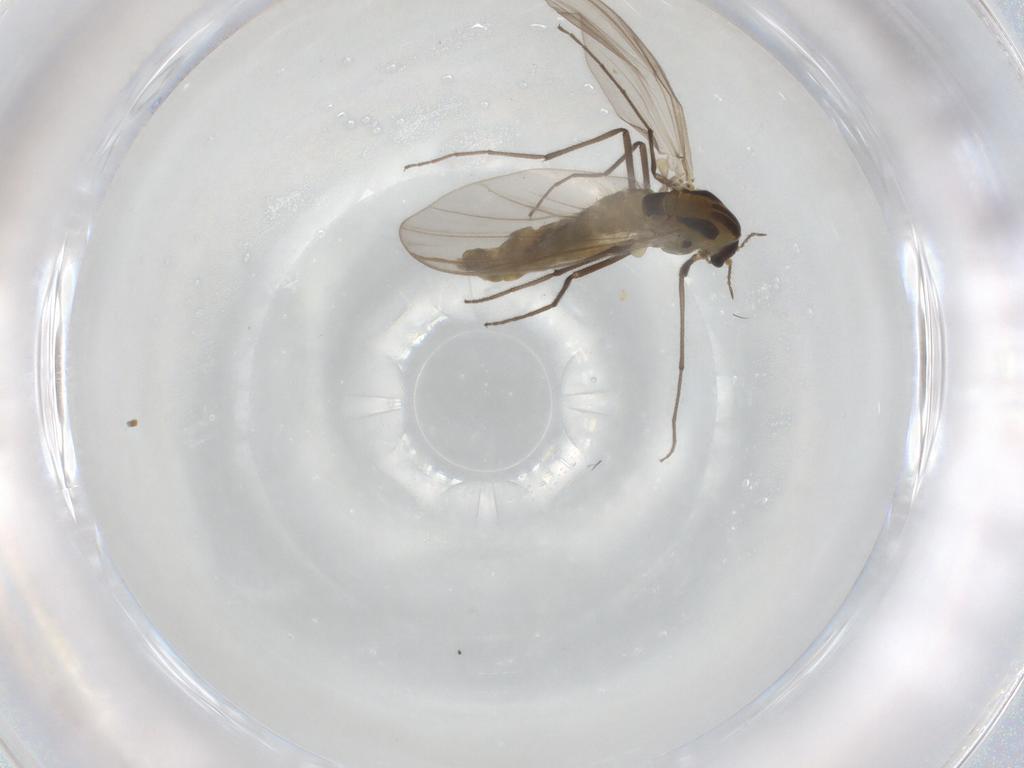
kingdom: Animalia
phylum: Arthropoda
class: Insecta
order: Diptera
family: Chironomidae
